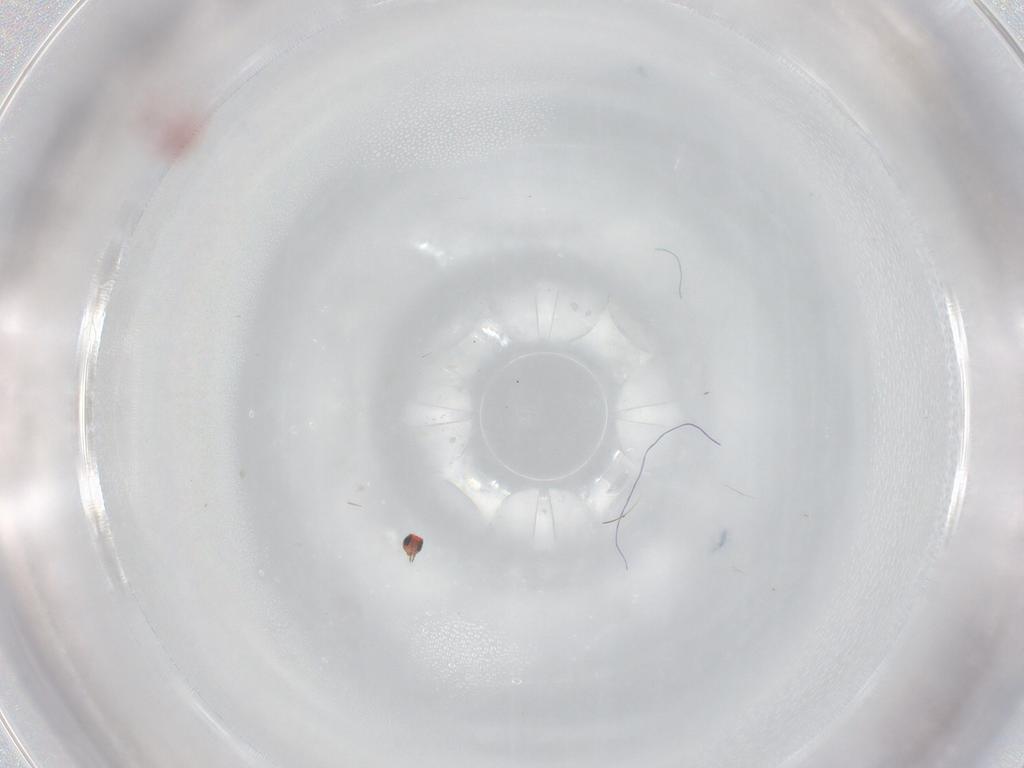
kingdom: Animalia
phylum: Arthropoda
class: Insecta
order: Hymenoptera
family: Trichogrammatidae
